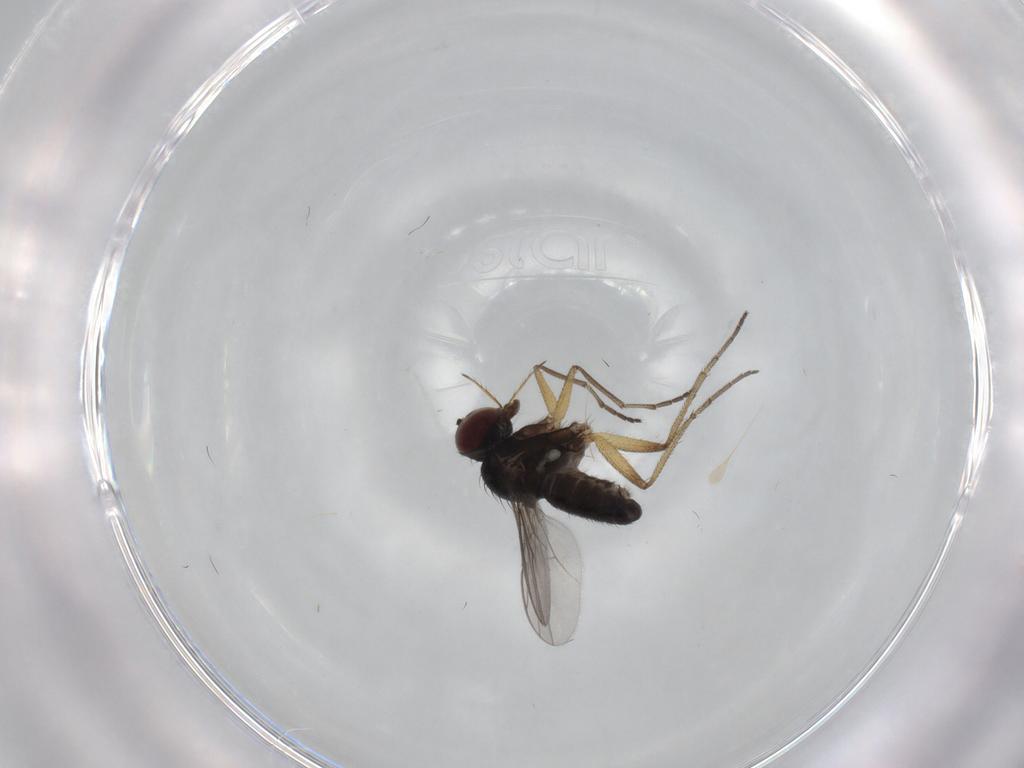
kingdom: Animalia
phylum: Arthropoda
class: Insecta
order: Diptera
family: Dolichopodidae
